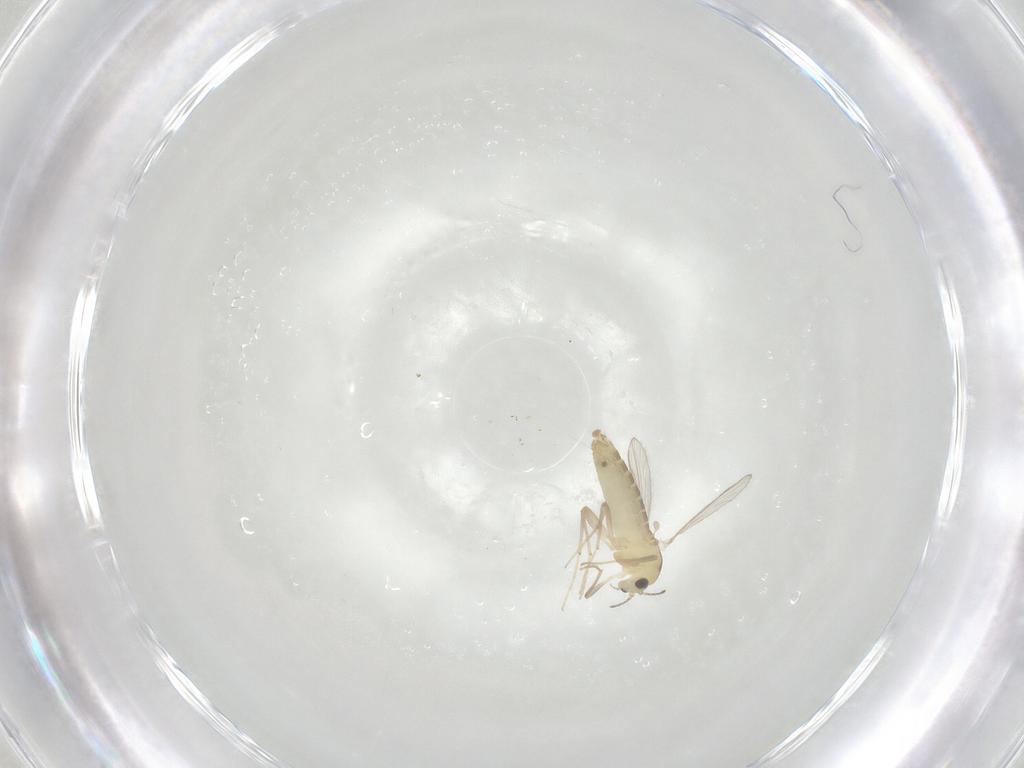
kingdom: Animalia
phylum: Arthropoda
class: Insecta
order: Diptera
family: Chironomidae
